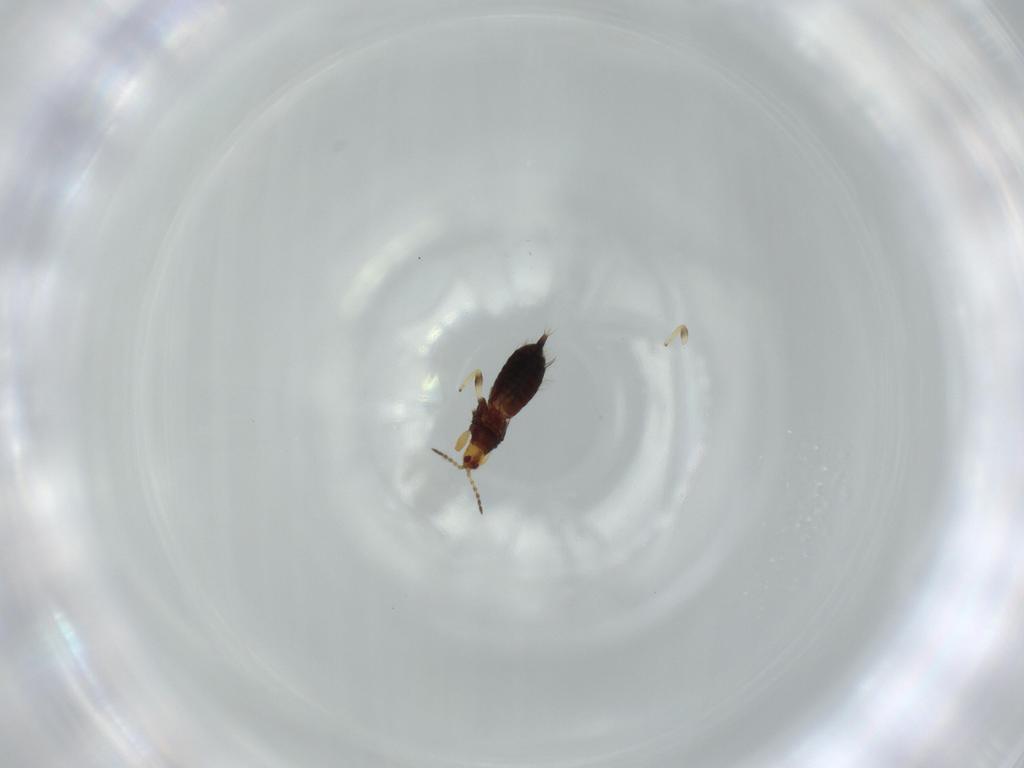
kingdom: Animalia
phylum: Arthropoda
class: Insecta
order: Thysanoptera
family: Phlaeothripidae
